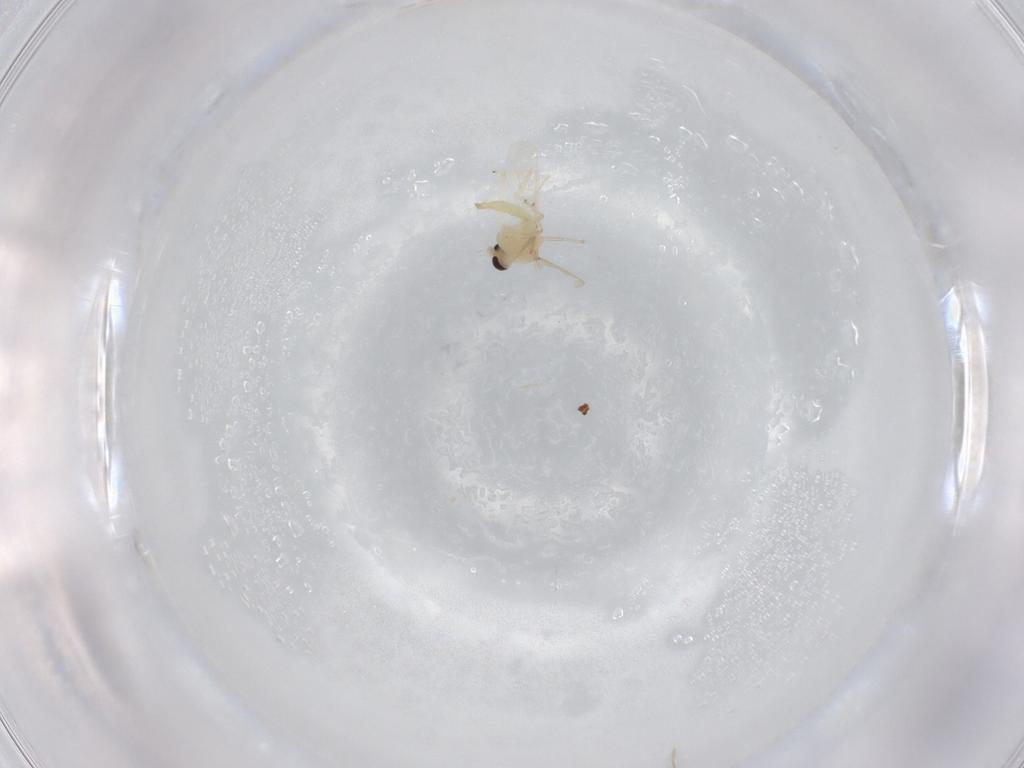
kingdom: Animalia
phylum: Arthropoda
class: Insecta
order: Diptera
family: Chironomidae
